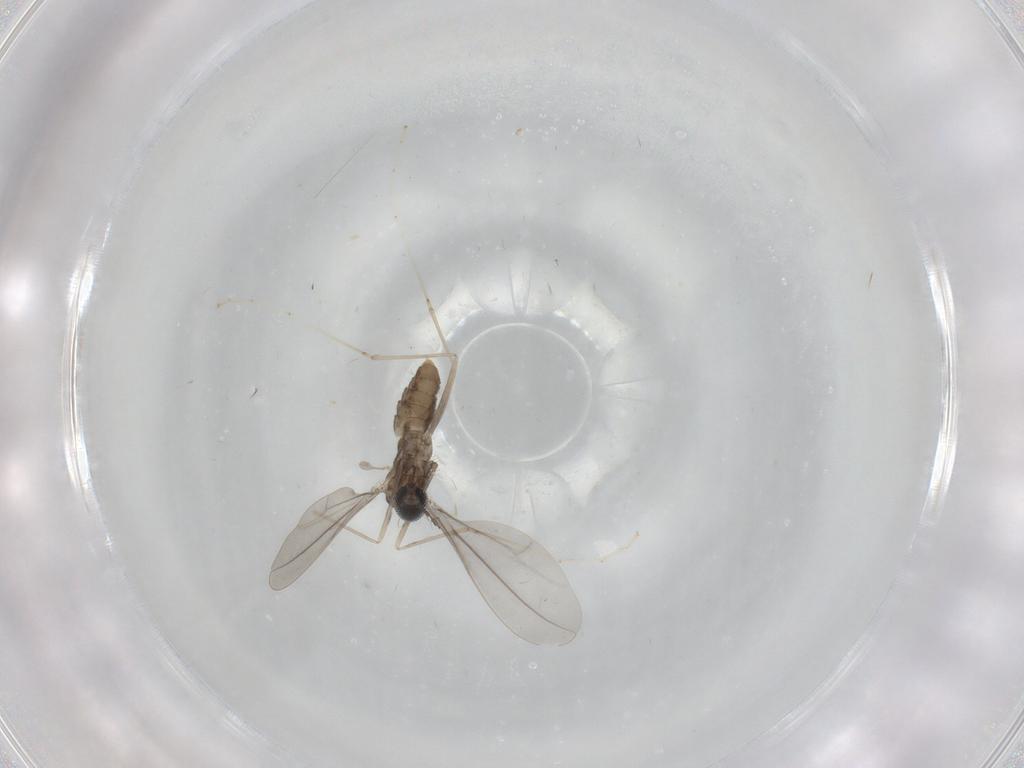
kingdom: Animalia
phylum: Arthropoda
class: Insecta
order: Diptera
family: Cecidomyiidae
